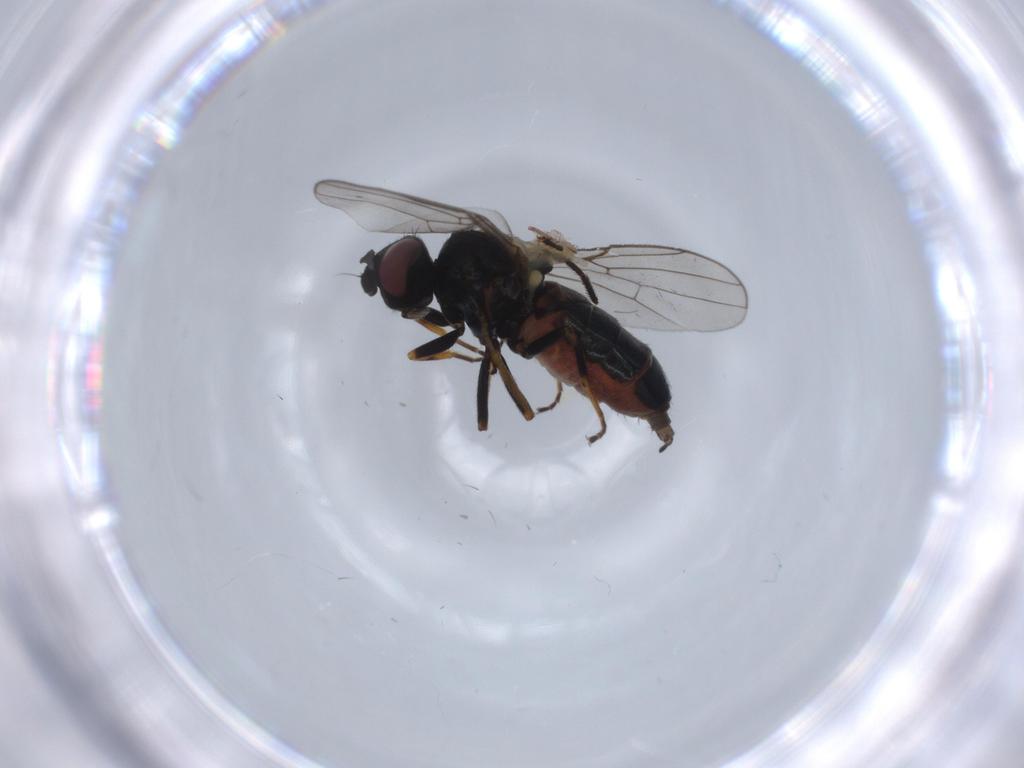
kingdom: Animalia
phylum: Arthropoda
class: Insecta
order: Diptera
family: Chloropidae
